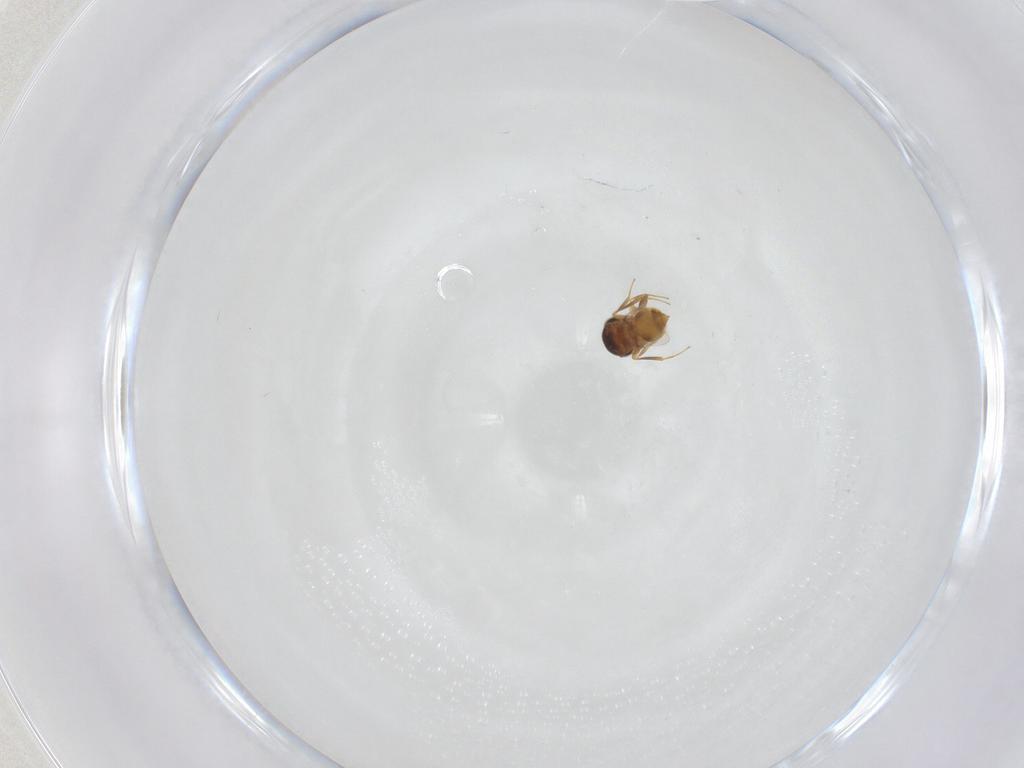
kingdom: Animalia
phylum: Arthropoda
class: Insecta
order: Hymenoptera
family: Scelionidae
